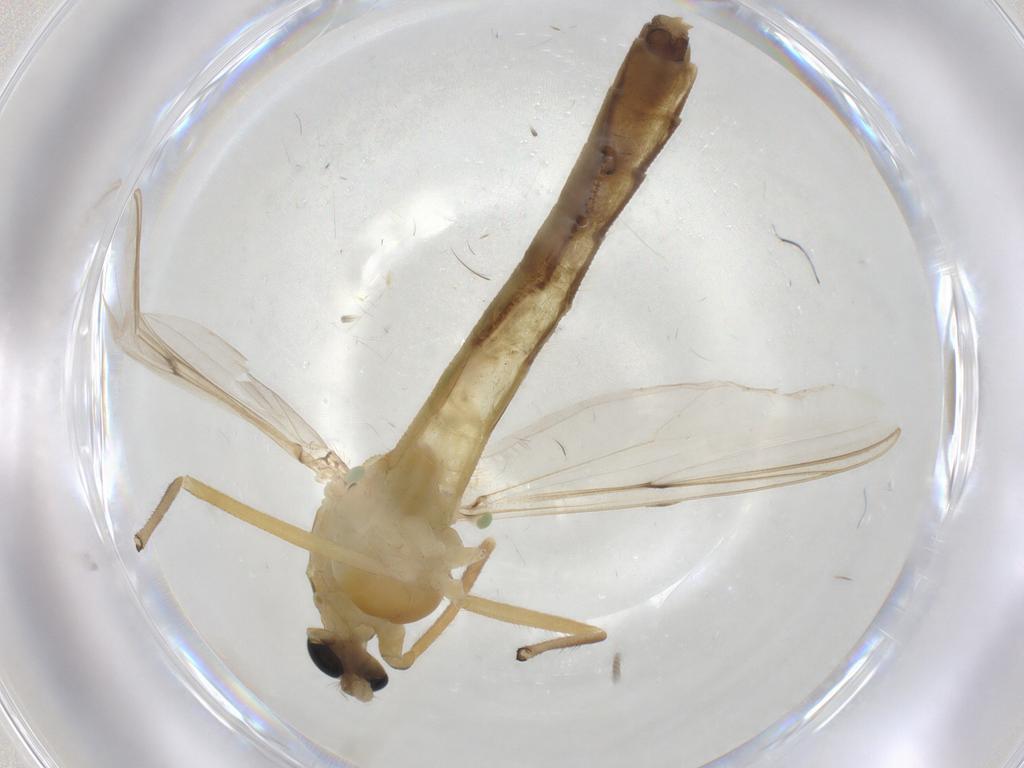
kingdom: Animalia
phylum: Arthropoda
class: Insecta
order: Diptera
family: Chironomidae
